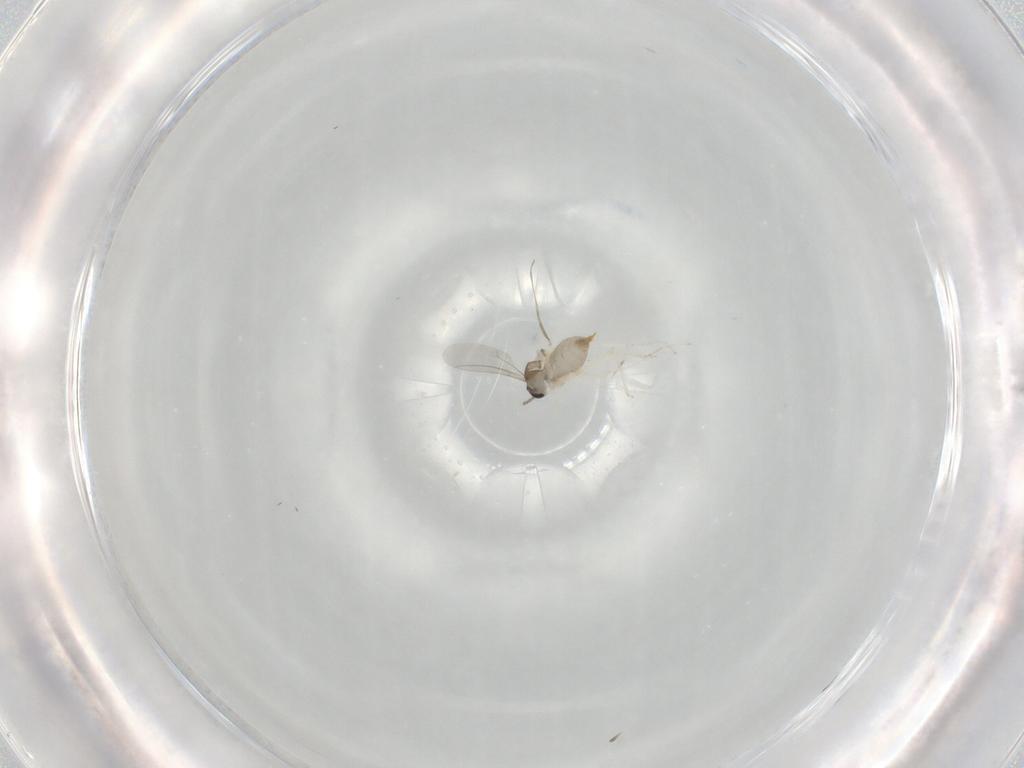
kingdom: Animalia
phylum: Arthropoda
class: Insecta
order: Diptera
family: Cecidomyiidae
